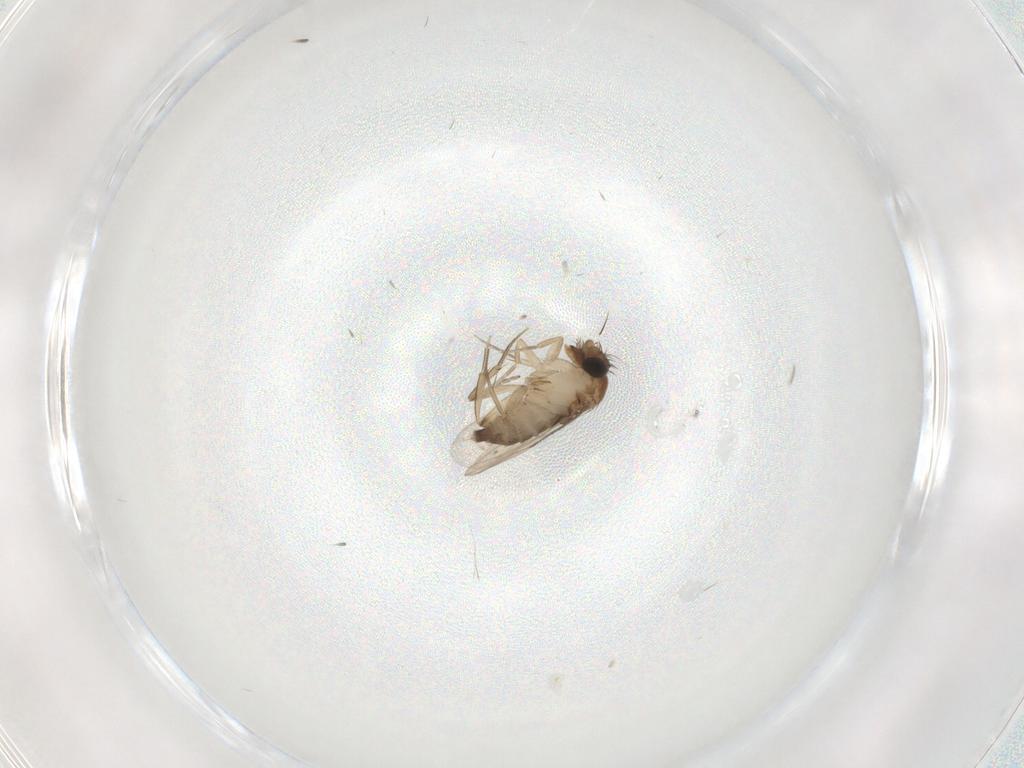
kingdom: Animalia
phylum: Arthropoda
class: Insecta
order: Diptera
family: Phoridae
